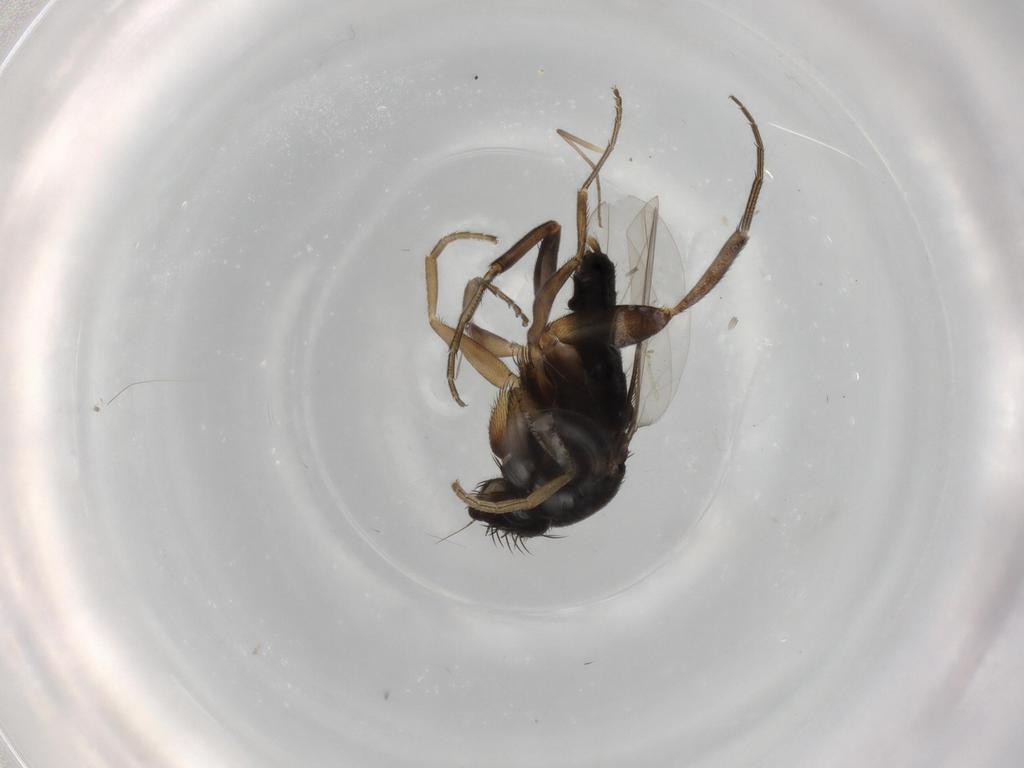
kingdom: Animalia
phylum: Arthropoda
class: Insecta
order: Diptera
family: Phoridae
